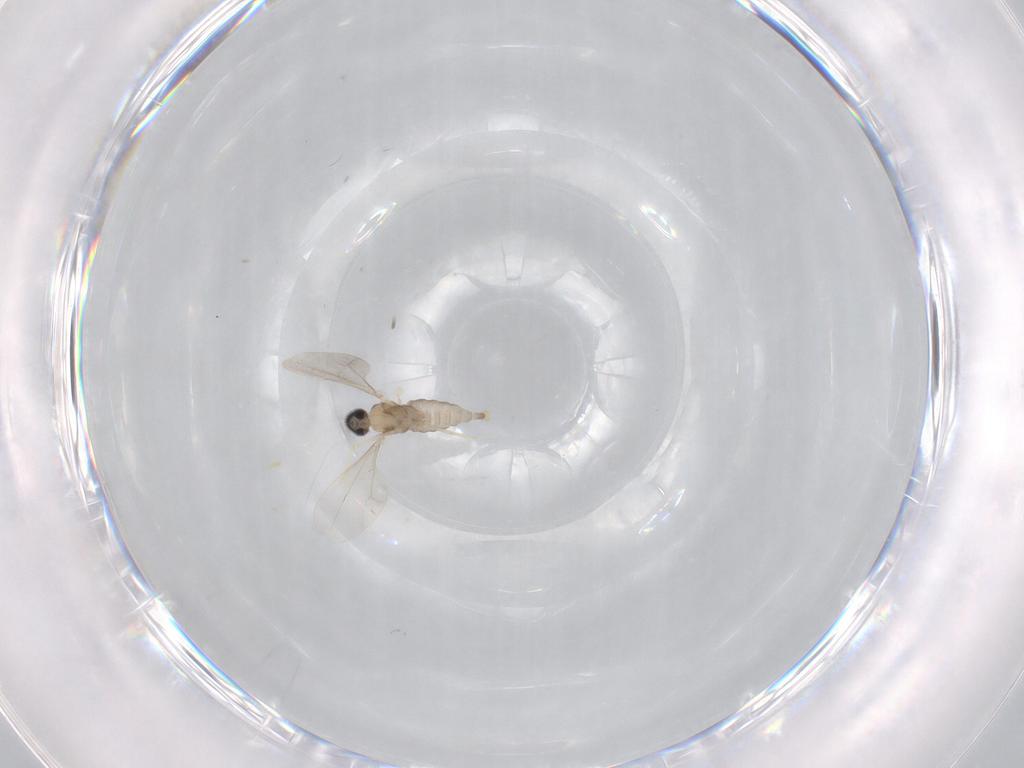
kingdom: Animalia
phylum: Arthropoda
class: Insecta
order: Diptera
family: Cecidomyiidae
